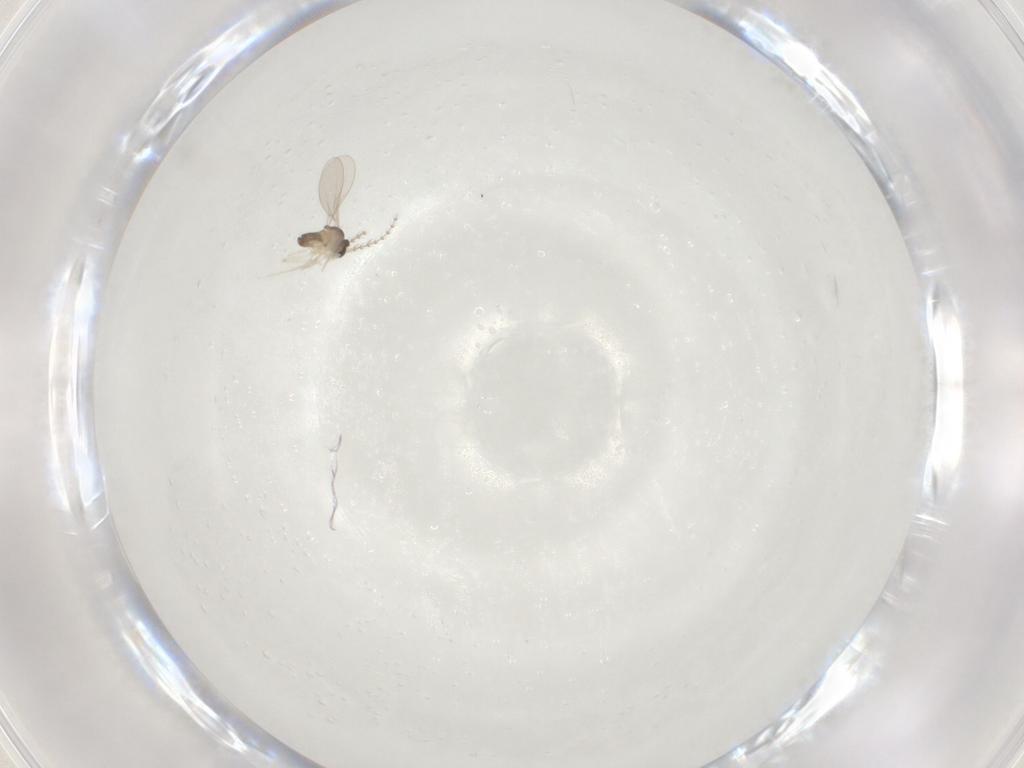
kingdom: Animalia
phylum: Arthropoda
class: Insecta
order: Diptera
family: Cecidomyiidae
